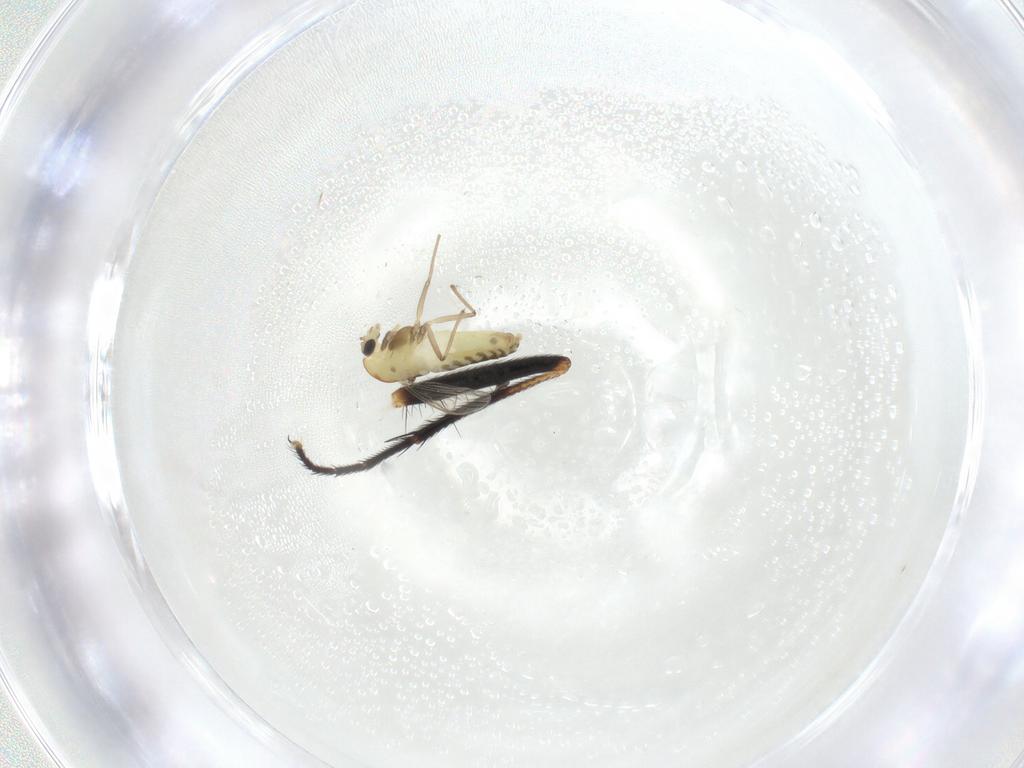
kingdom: Animalia
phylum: Arthropoda
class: Insecta
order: Diptera
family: Chironomidae
